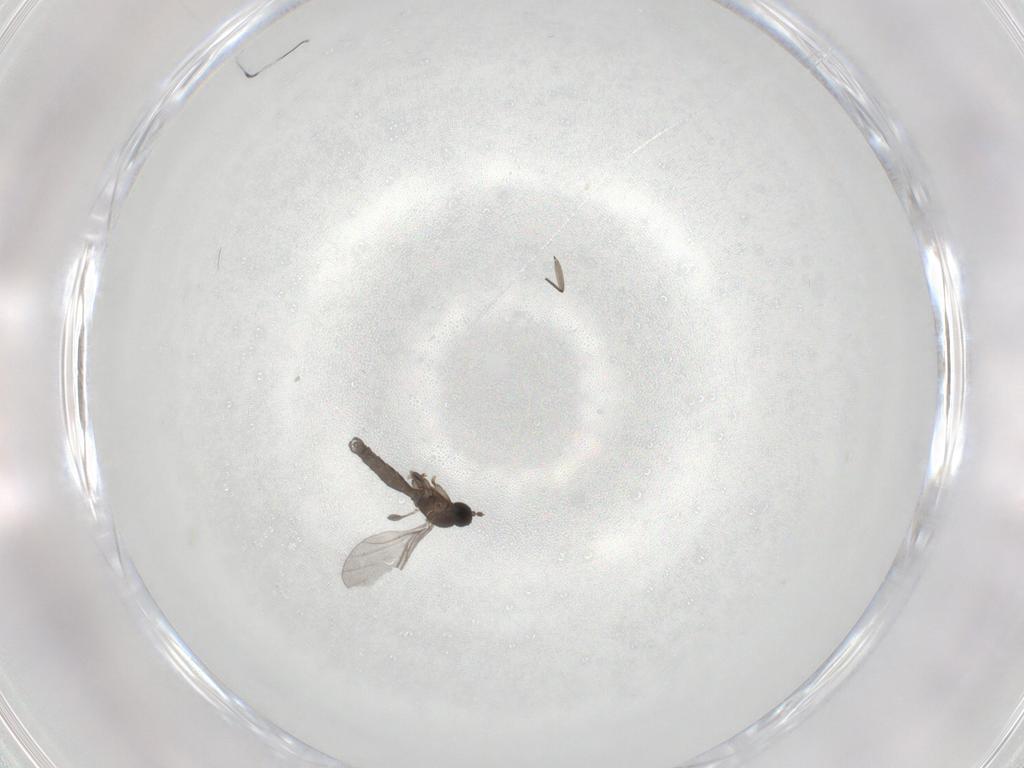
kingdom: Animalia
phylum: Arthropoda
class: Insecta
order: Diptera
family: Sciaridae
